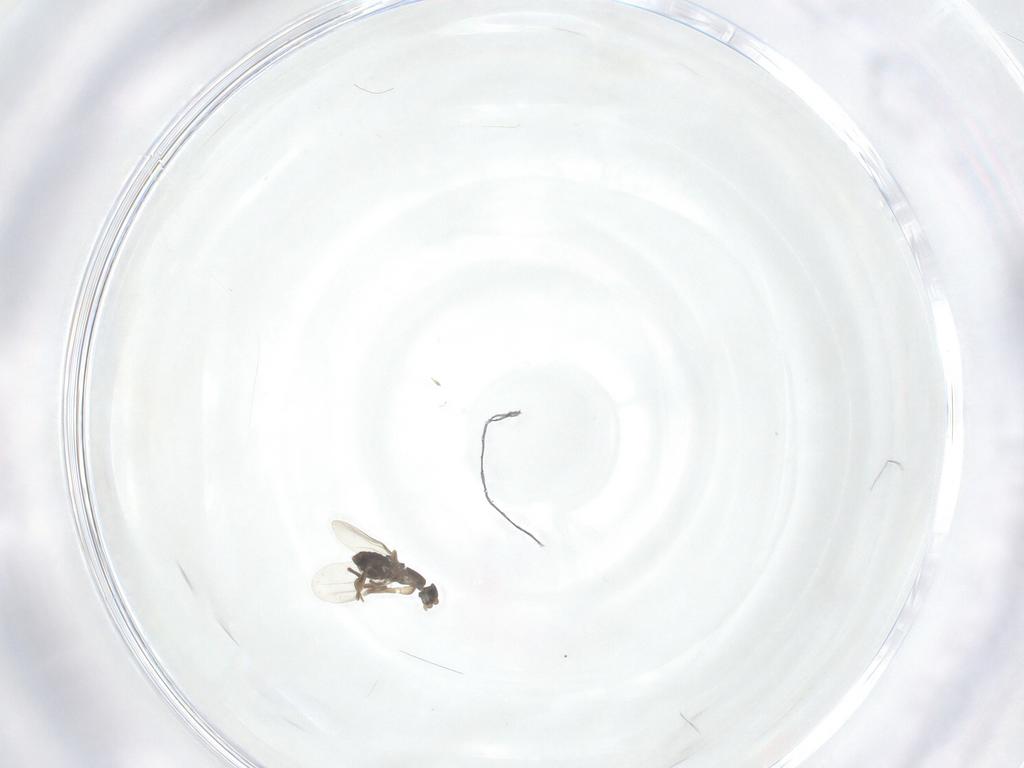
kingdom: Animalia
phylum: Arthropoda
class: Insecta
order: Diptera
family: Phoridae
